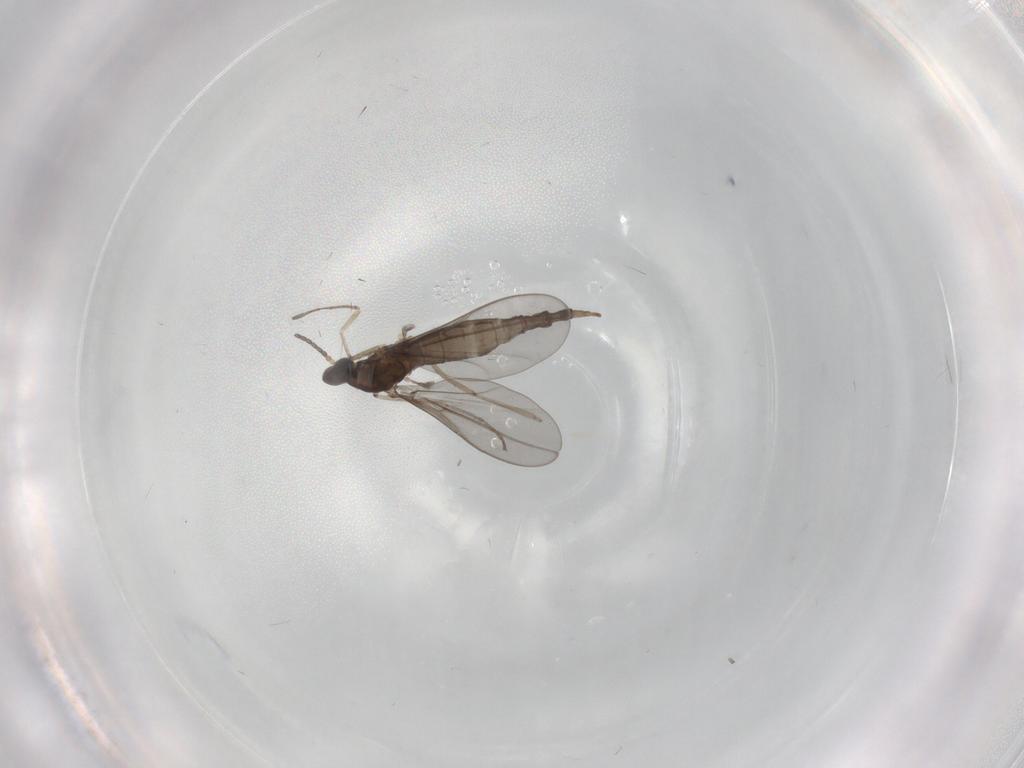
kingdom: Animalia
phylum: Arthropoda
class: Insecta
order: Diptera
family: Cecidomyiidae
